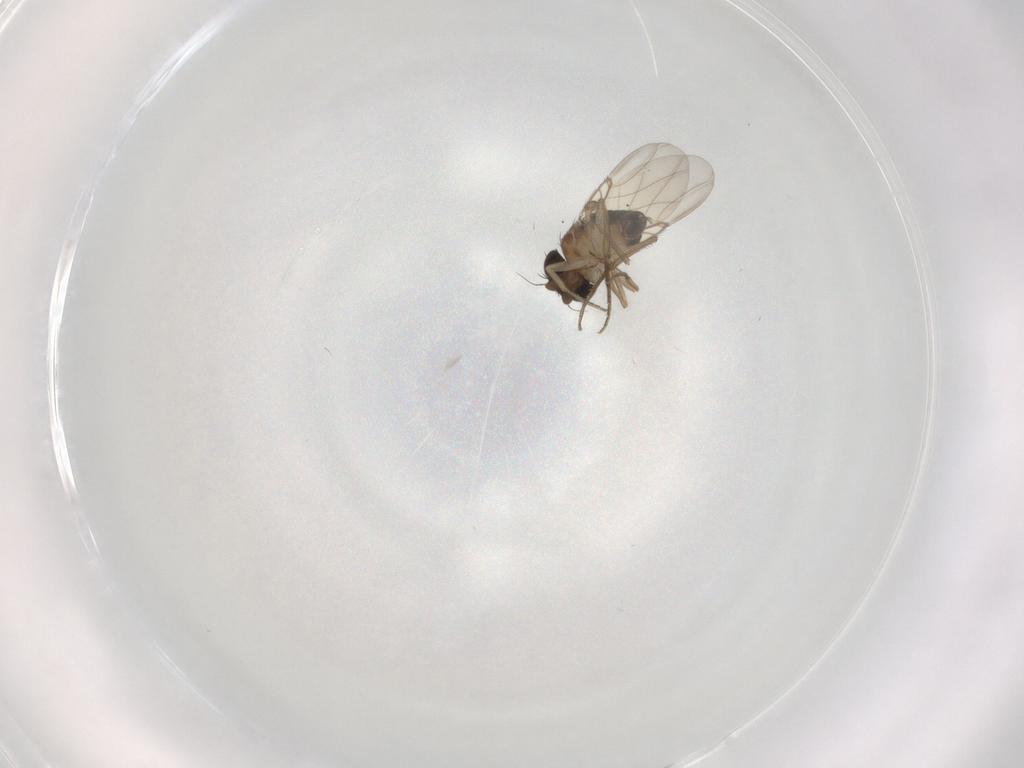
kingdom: Animalia
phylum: Arthropoda
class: Insecta
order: Diptera
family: Phoridae
